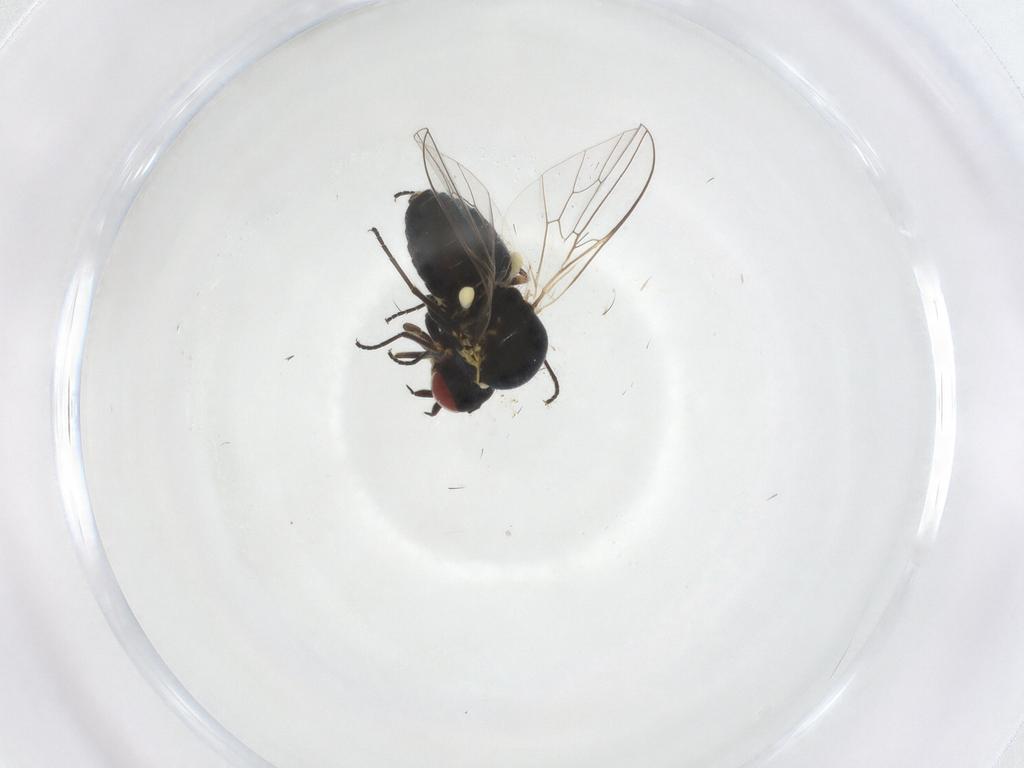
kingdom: Animalia
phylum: Arthropoda
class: Insecta
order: Diptera
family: Mythicomyiidae
